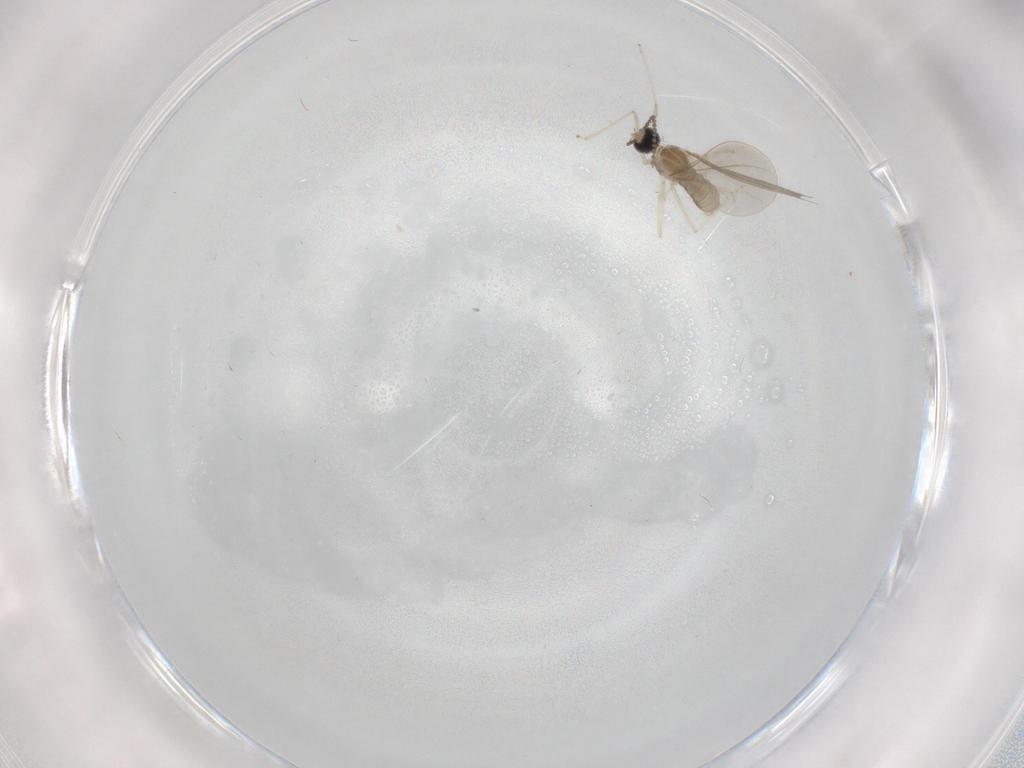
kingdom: Animalia
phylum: Arthropoda
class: Insecta
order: Diptera
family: Cecidomyiidae
